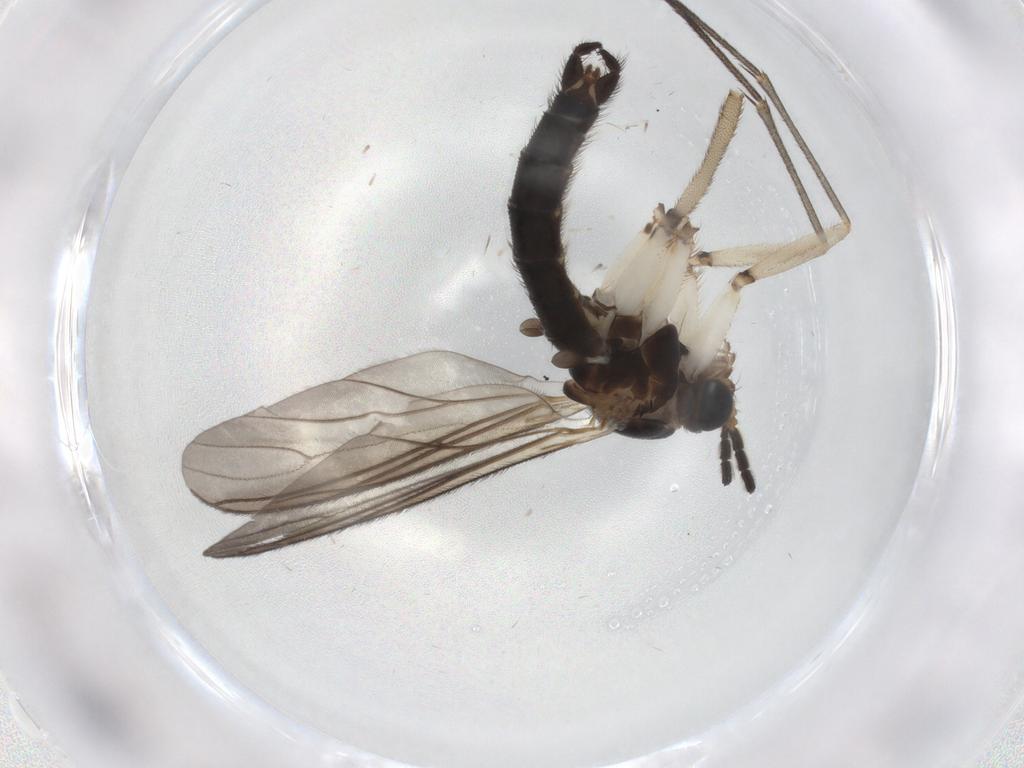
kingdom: Animalia
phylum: Arthropoda
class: Insecta
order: Diptera
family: Sciaridae
